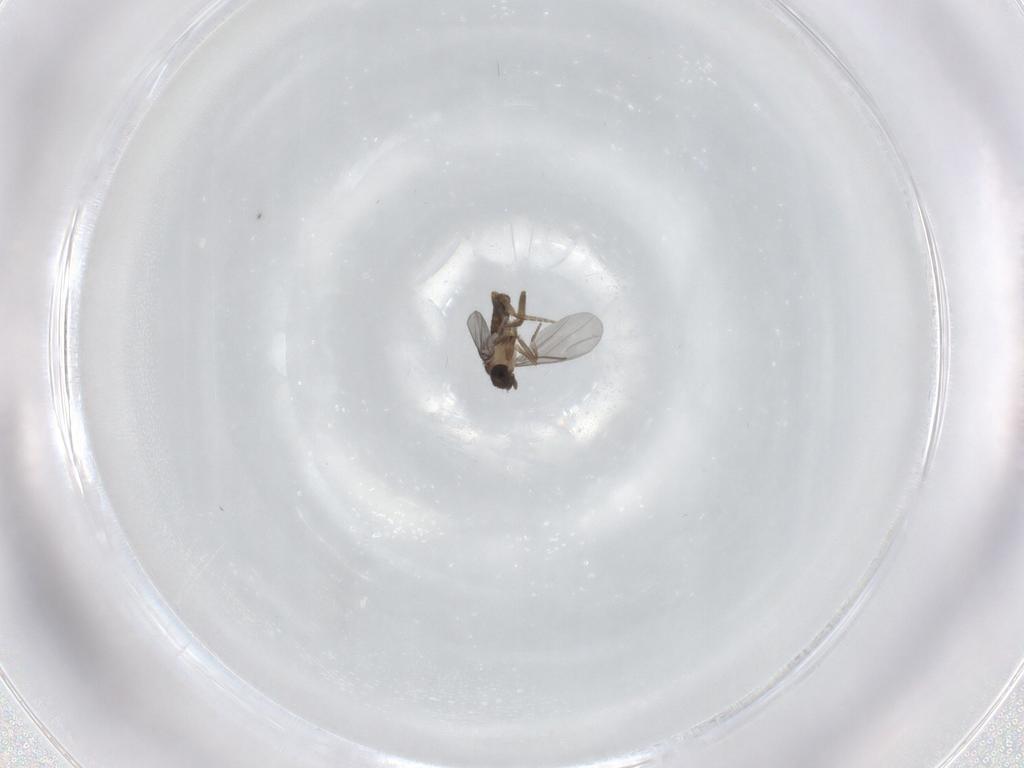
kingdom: Animalia
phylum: Arthropoda
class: Insecta
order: Diptera
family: Phoridae
